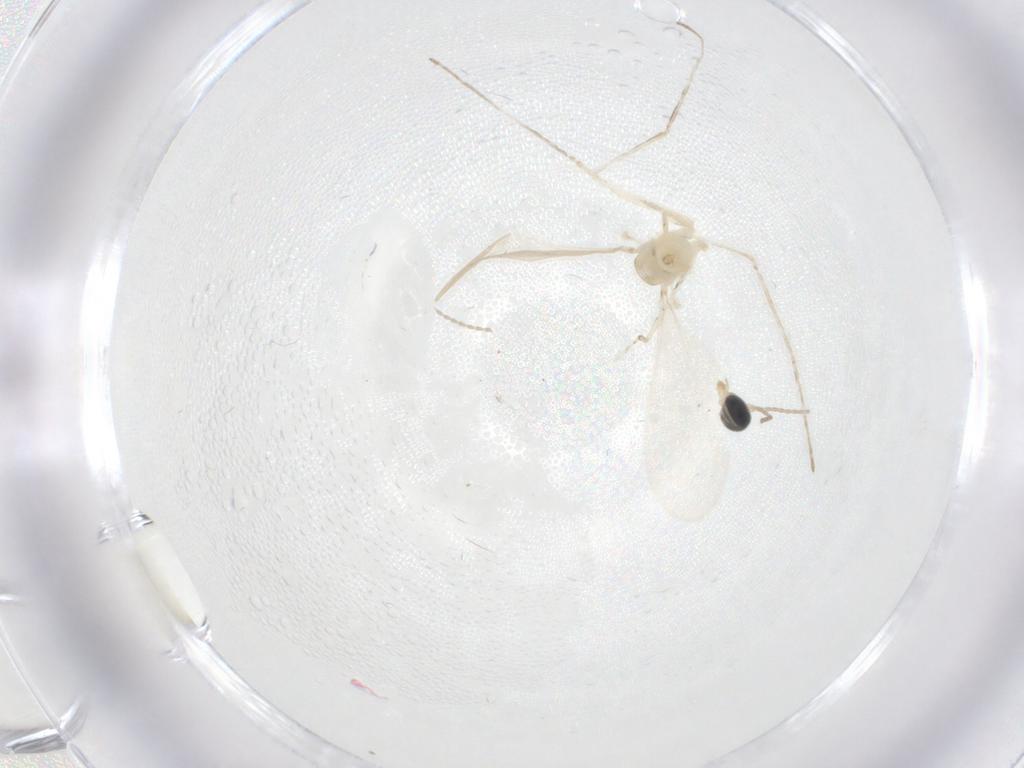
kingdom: Animalia
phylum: Arthropoda
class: Insecta
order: Diptera
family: Cecidomyiidae
